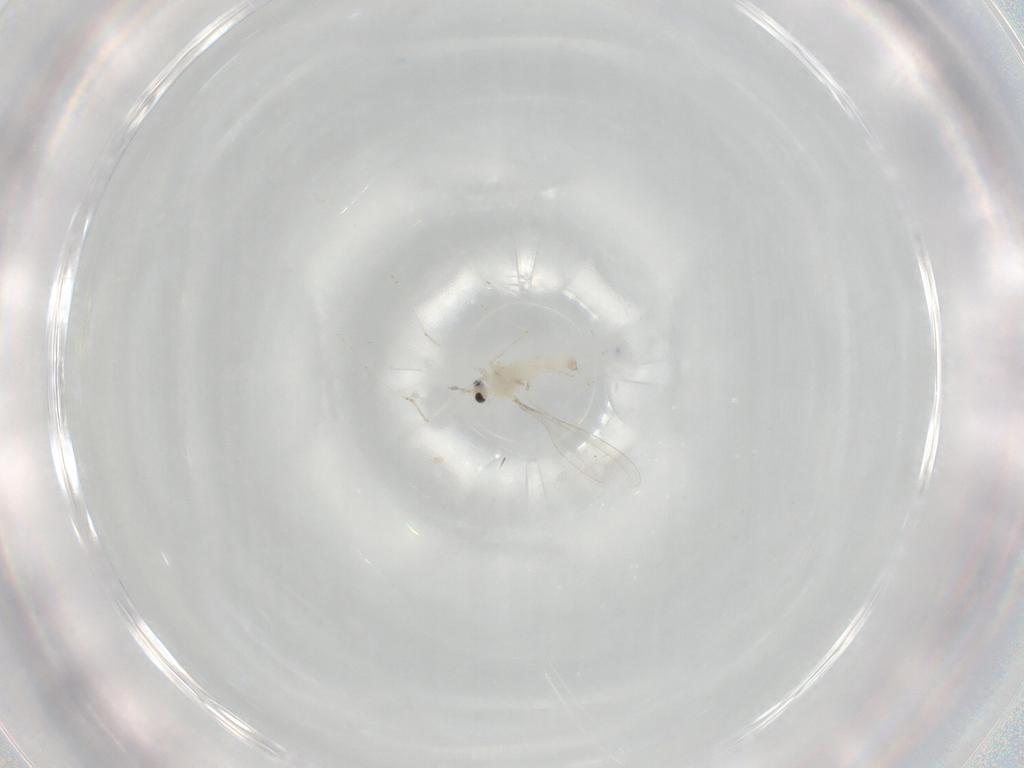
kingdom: Animalia
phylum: Arthropoda
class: Insecta
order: Diptera
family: Cecidomyiidae
